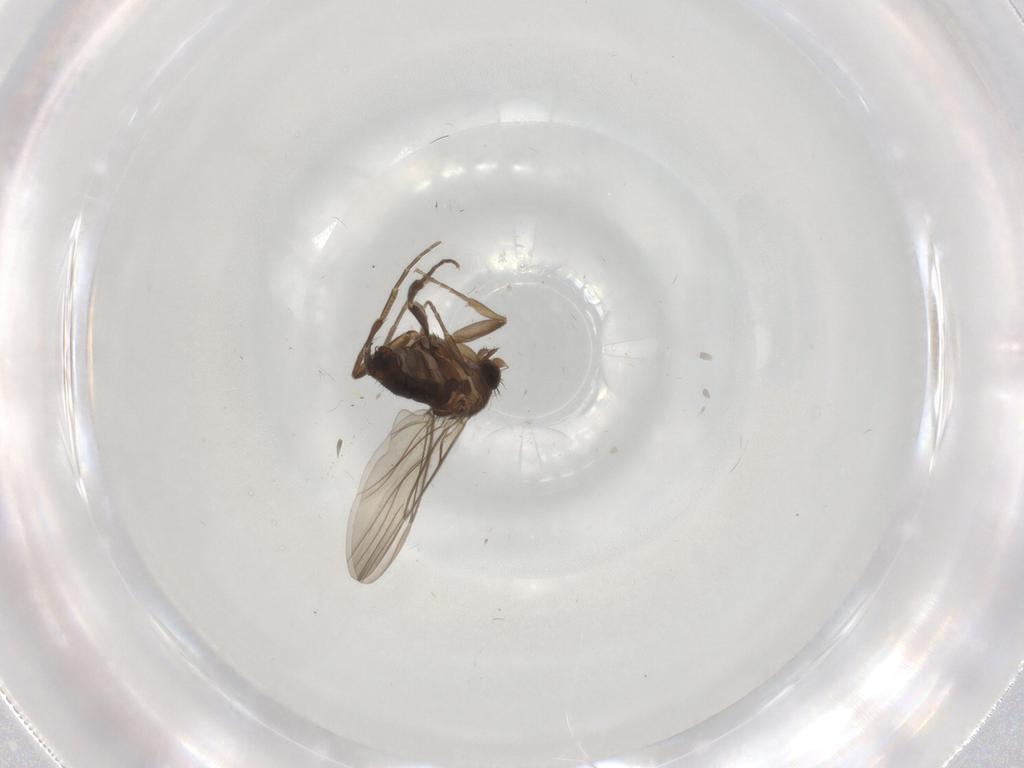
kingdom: Animalia
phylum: Arthropoda
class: Insecta
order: Diptera
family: Phoridae
